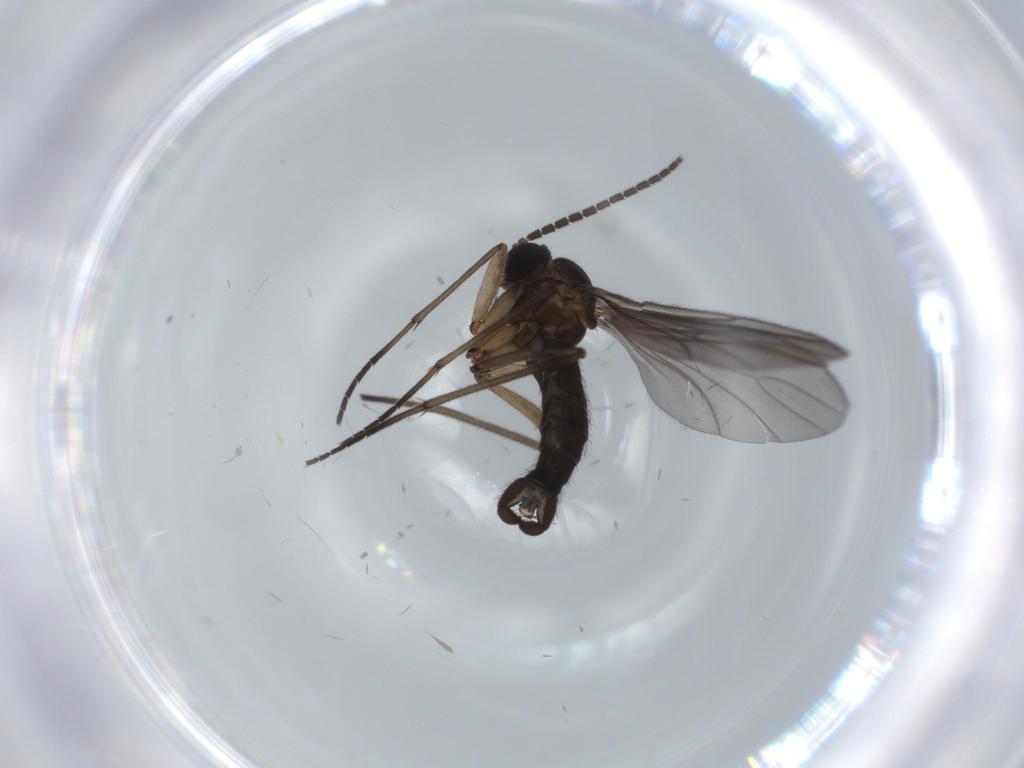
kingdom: Animalia
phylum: Arthropoda
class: Insecta
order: Diptera
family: Sciaridae
